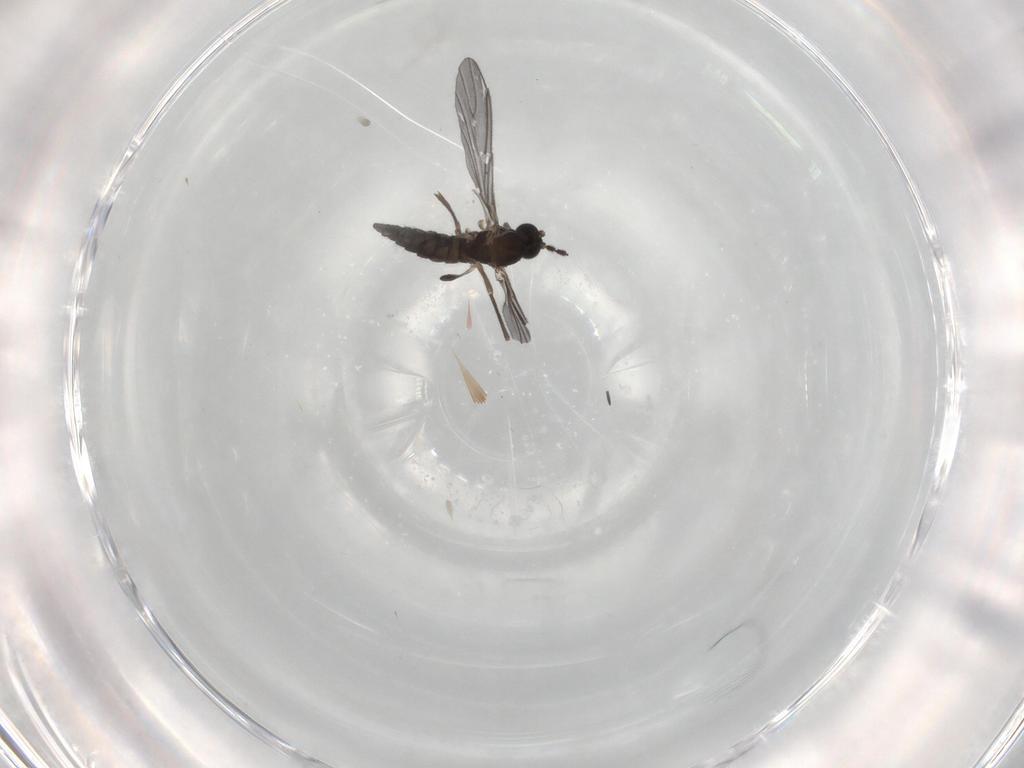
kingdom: Animalia
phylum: Arthropoda
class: Insecta
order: Diptera
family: Sciaridae
